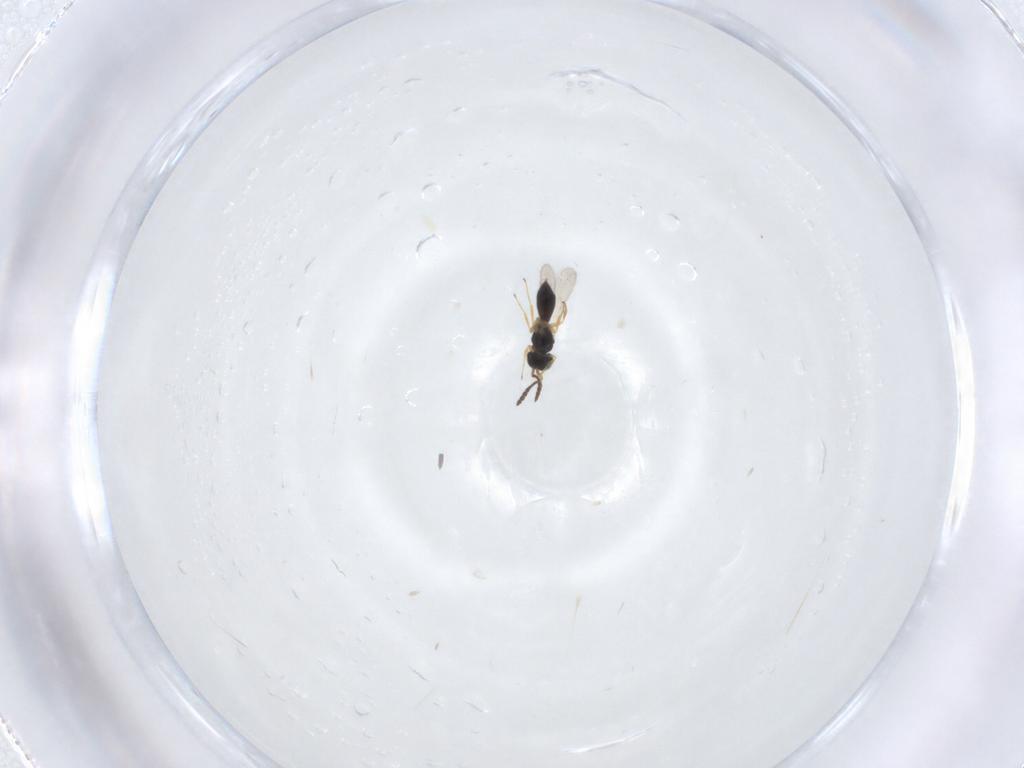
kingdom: Animalia
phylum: Arthropoda
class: Insecta
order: Hymenoptera
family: Scelionidae
